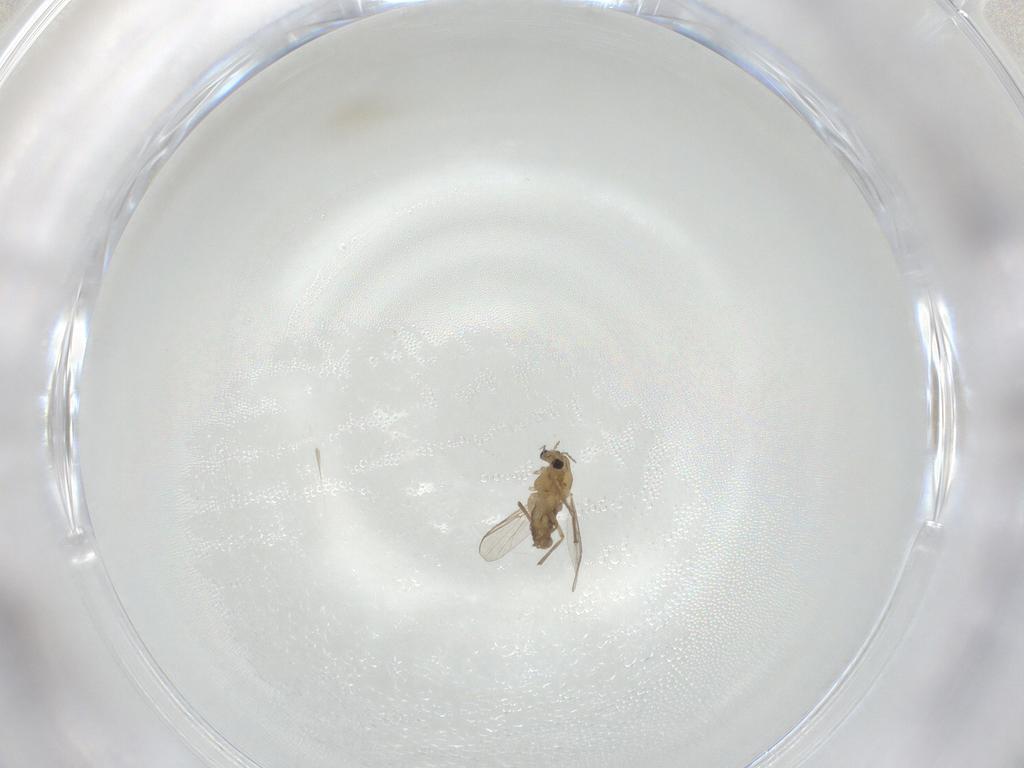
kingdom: Animalia
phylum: Arthropoda
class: Insecta
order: Diptera
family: Chironomidae
